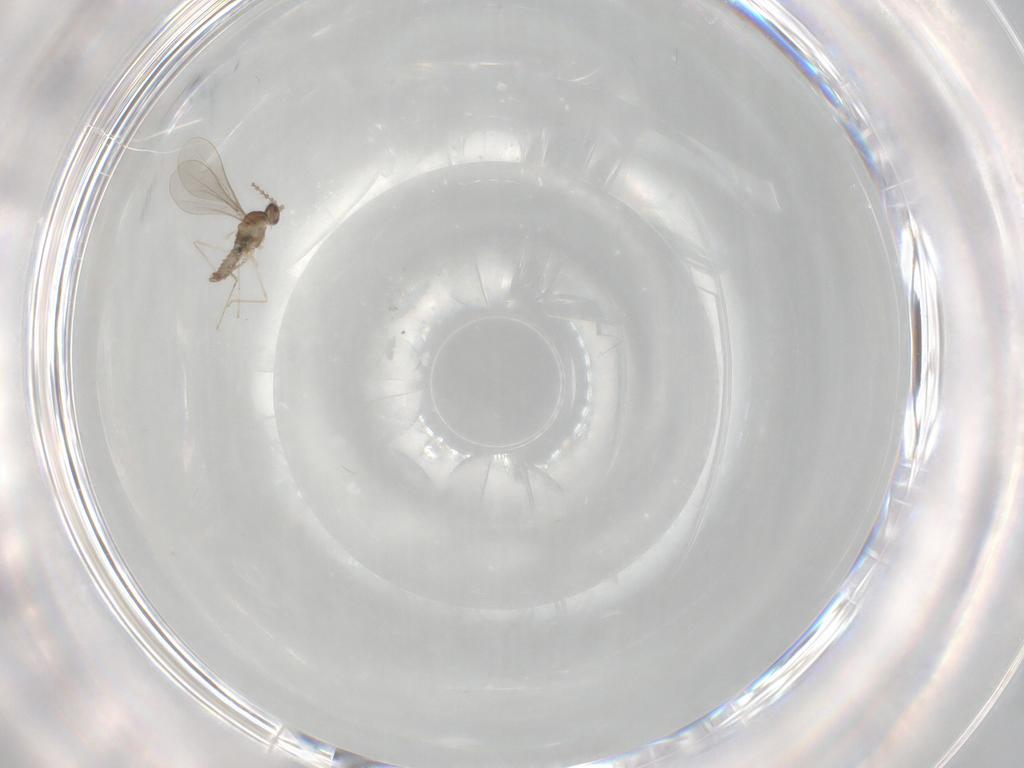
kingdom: Animalia
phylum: Arthropoda
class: Insecta
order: Diptera
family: Cecidomyiidae
